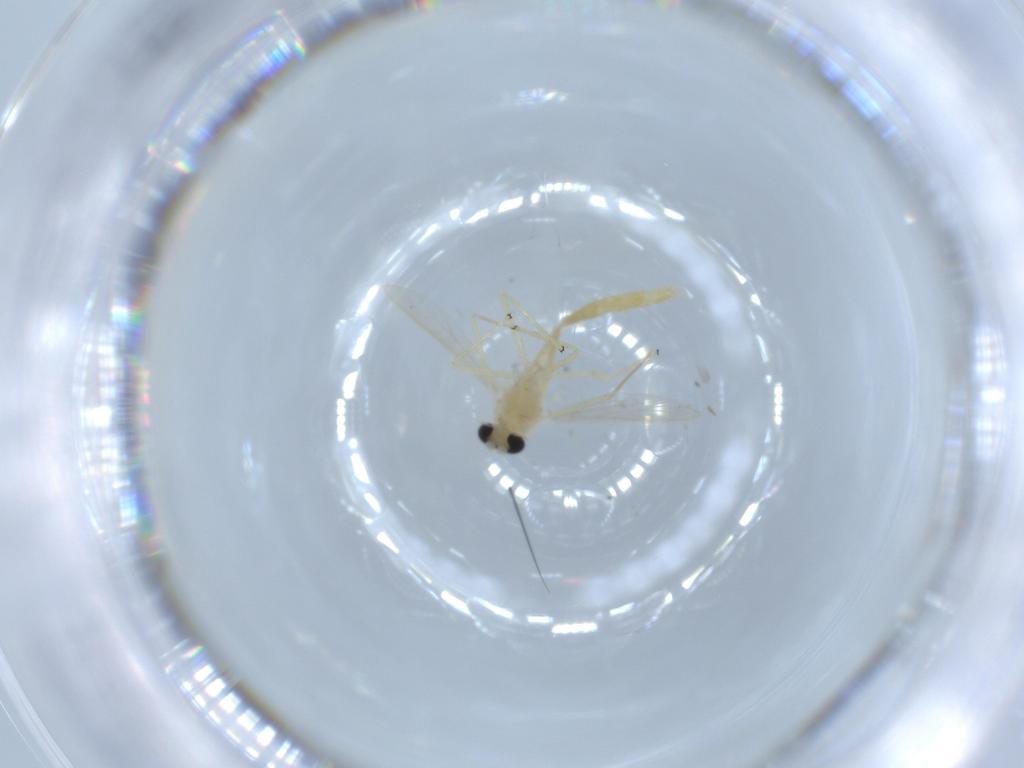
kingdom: Animalia
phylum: Arthropoda
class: Insecta
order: Diptera
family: Chironomidae
